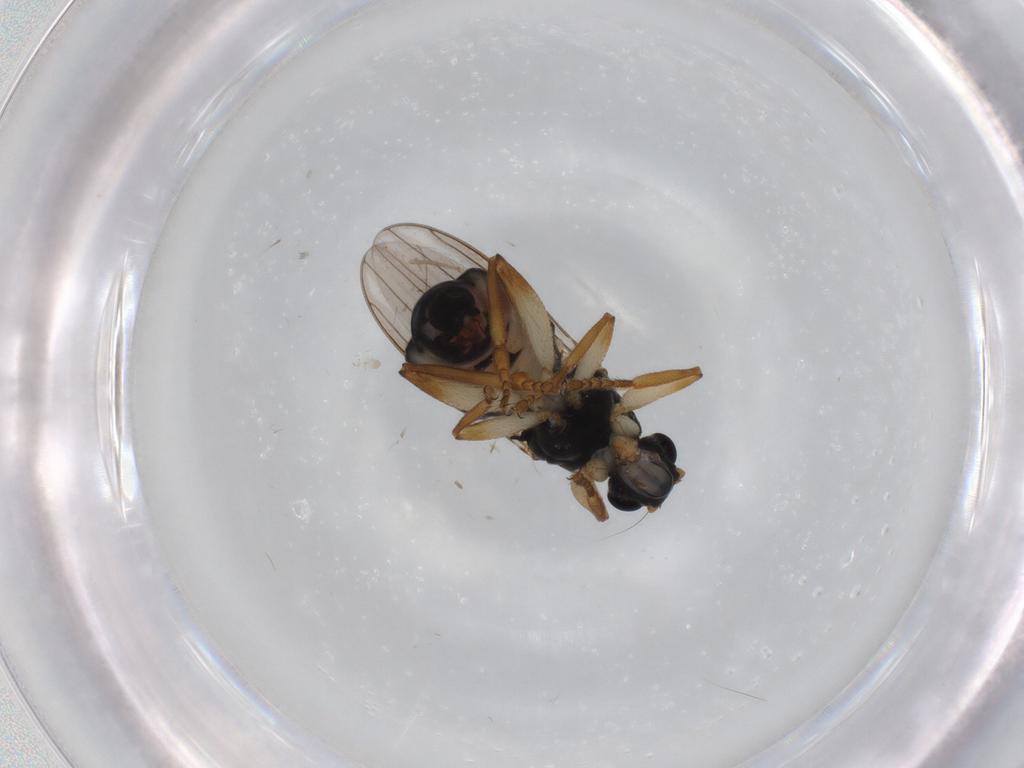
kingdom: Animalia
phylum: Arthropoda
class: Insecta
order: Diptera
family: Sphaeroceridae
